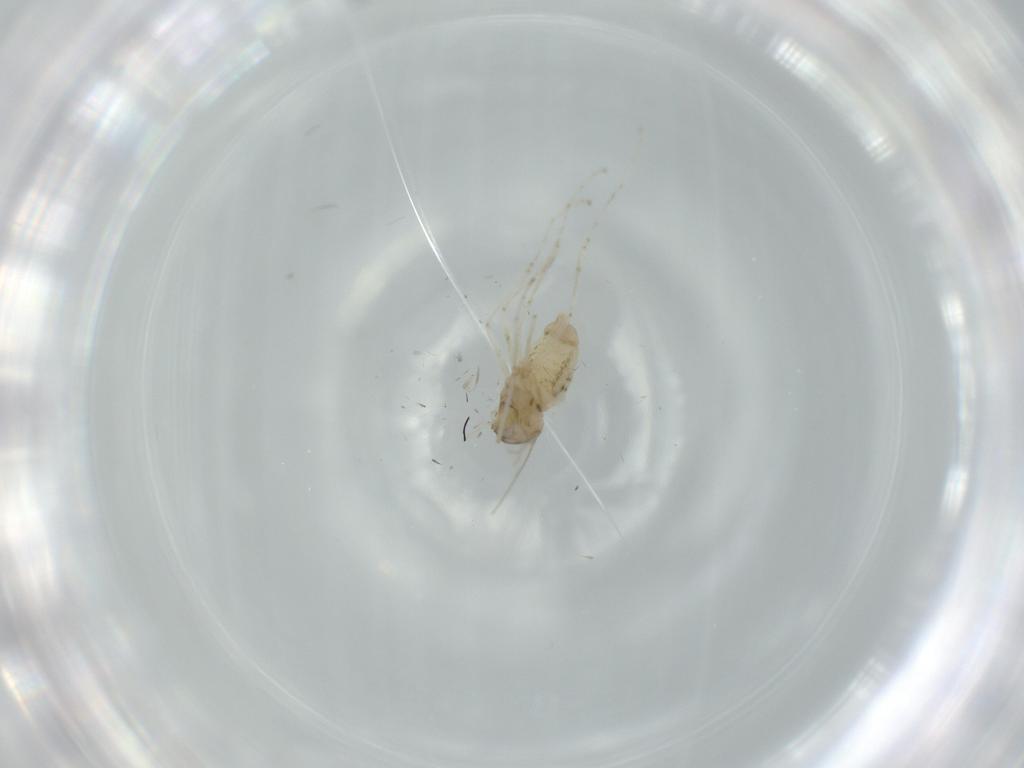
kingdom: Animalia
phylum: Arthropoda
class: Insecta
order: Diptera
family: Cecidomyiidae
